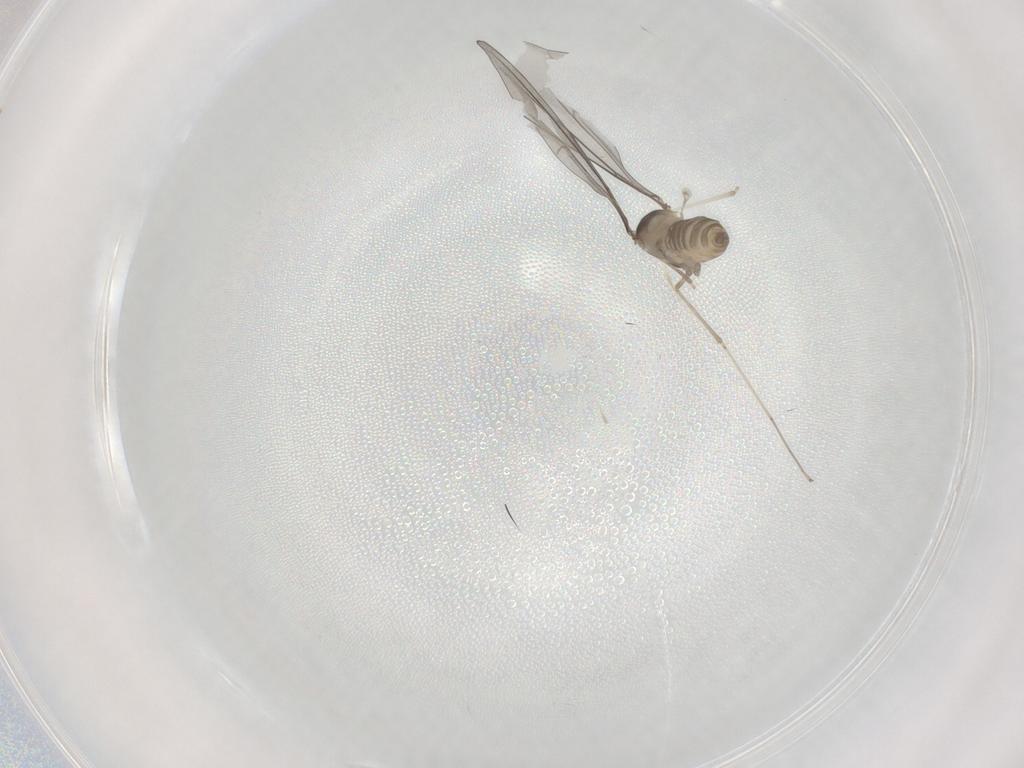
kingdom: Animalia
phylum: Arthropoda
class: Insecta
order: Diptera
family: Cecidomyiidae
